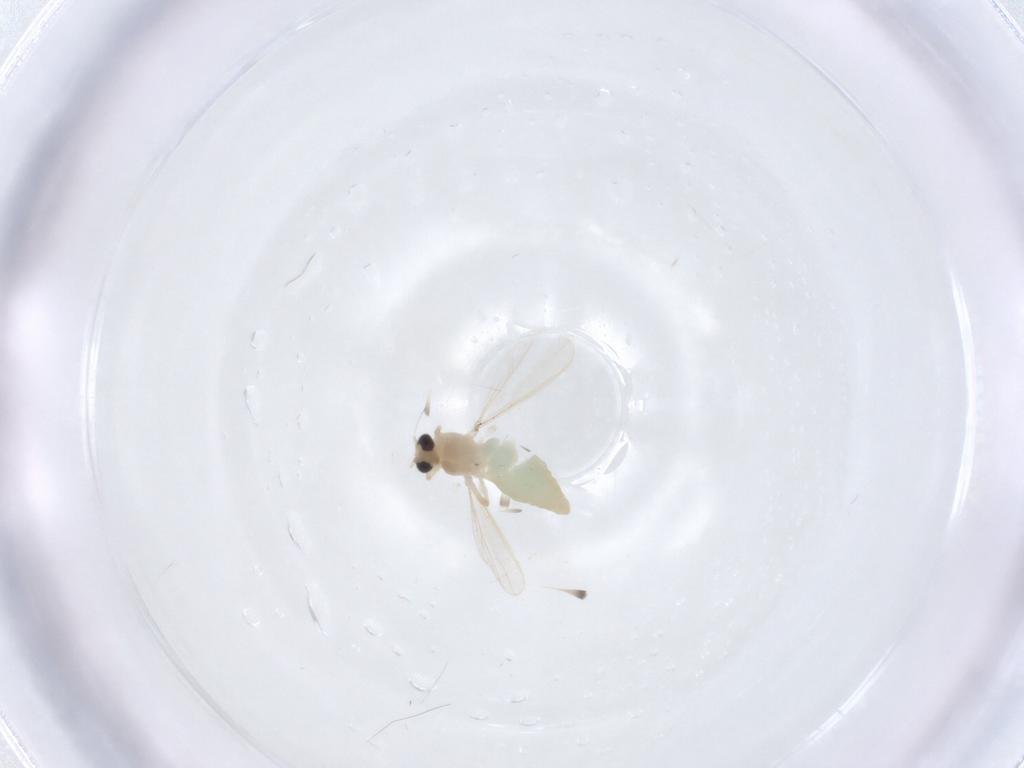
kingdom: Animalia
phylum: Arthropoda
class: Insecta
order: Diptera
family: Chironomidae
